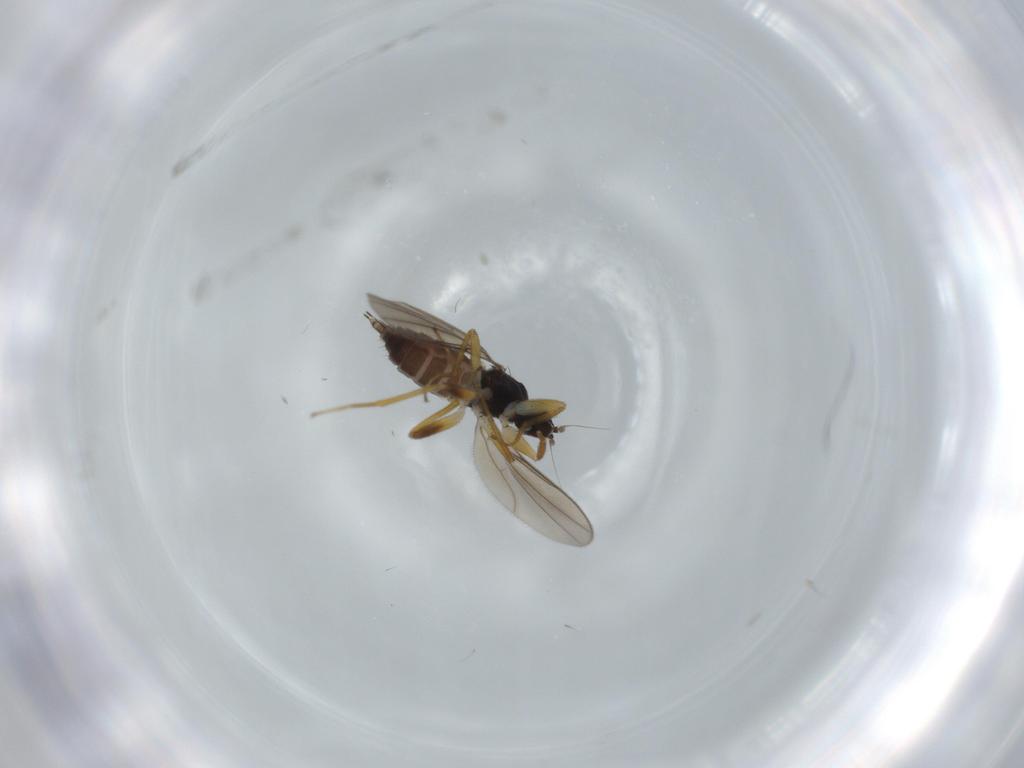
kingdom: Animalia
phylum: Arthropoda
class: Insecta
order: Diptera
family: Hybotidae
